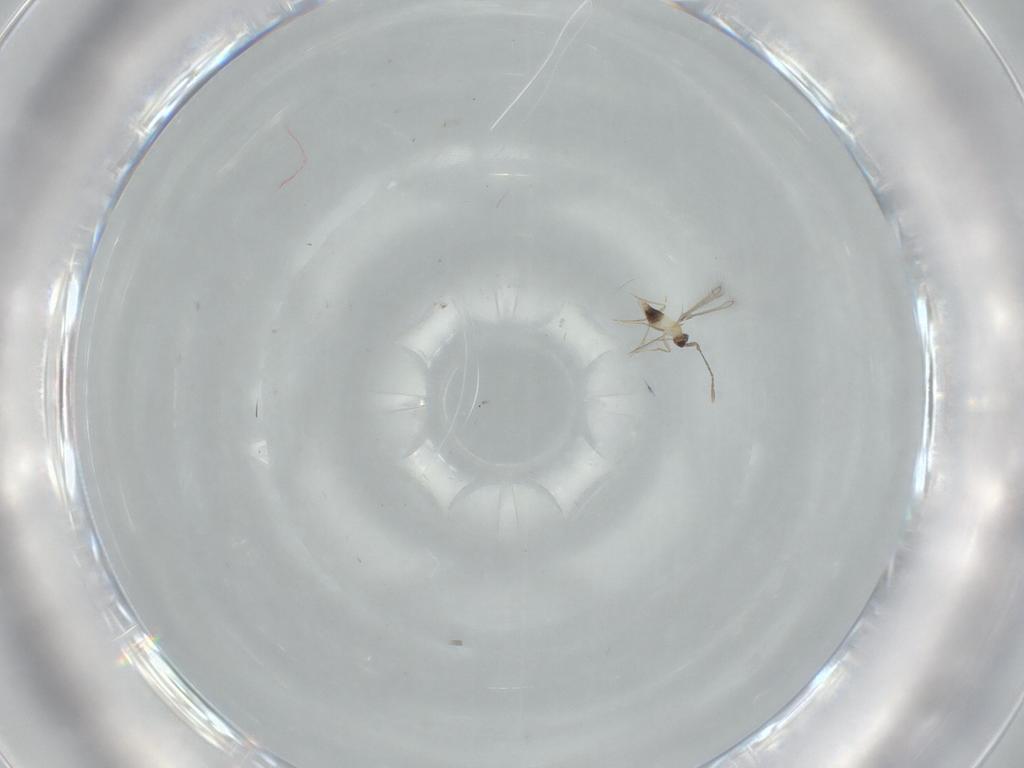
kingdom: Animalia
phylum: Arthropoda
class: Insecta
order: Hymenoptera
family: Mymaridae
